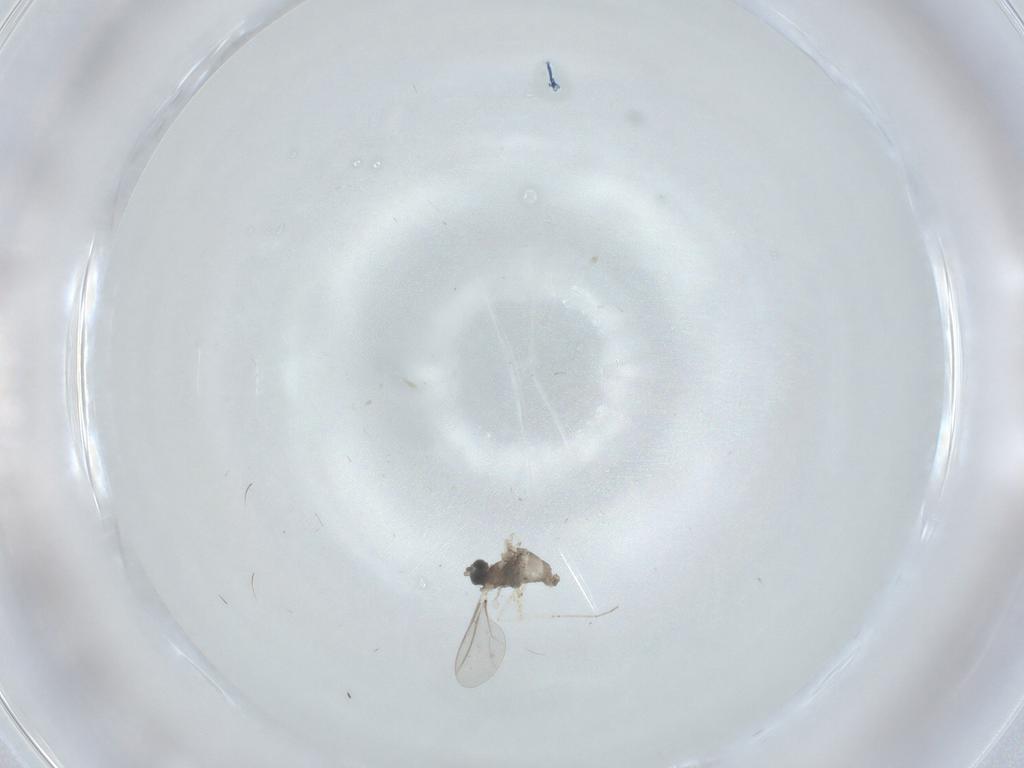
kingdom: Animalia
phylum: Arthropoda
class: Insecta
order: Diptera
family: Cecidomyiidae
